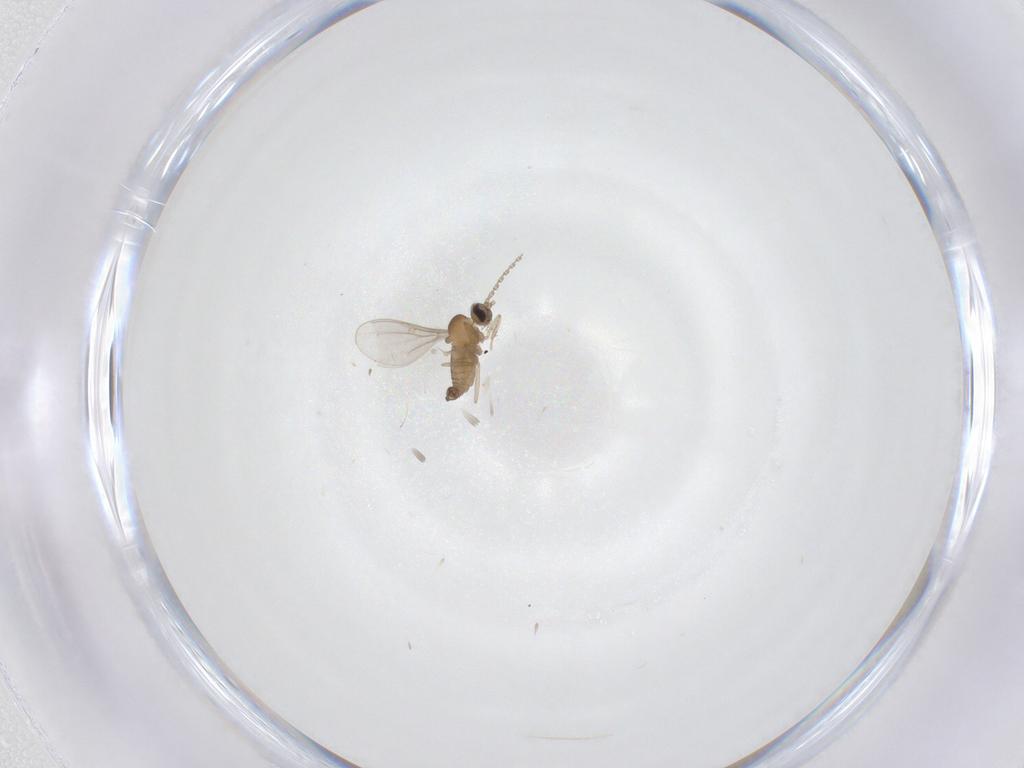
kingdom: Animalia
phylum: Arthropoda
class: Insecta
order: Diptera
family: Cecidomyiidae
